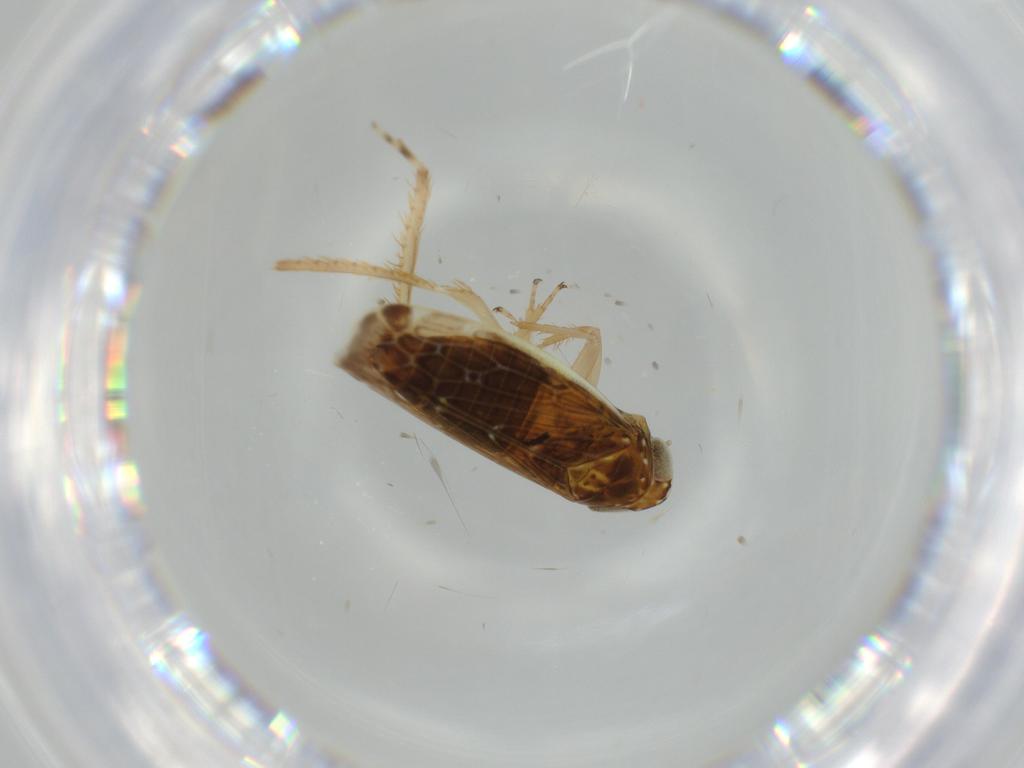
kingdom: Animalia
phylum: Arthropoda
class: Insecta
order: Hemiptera
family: Cicadellidae
